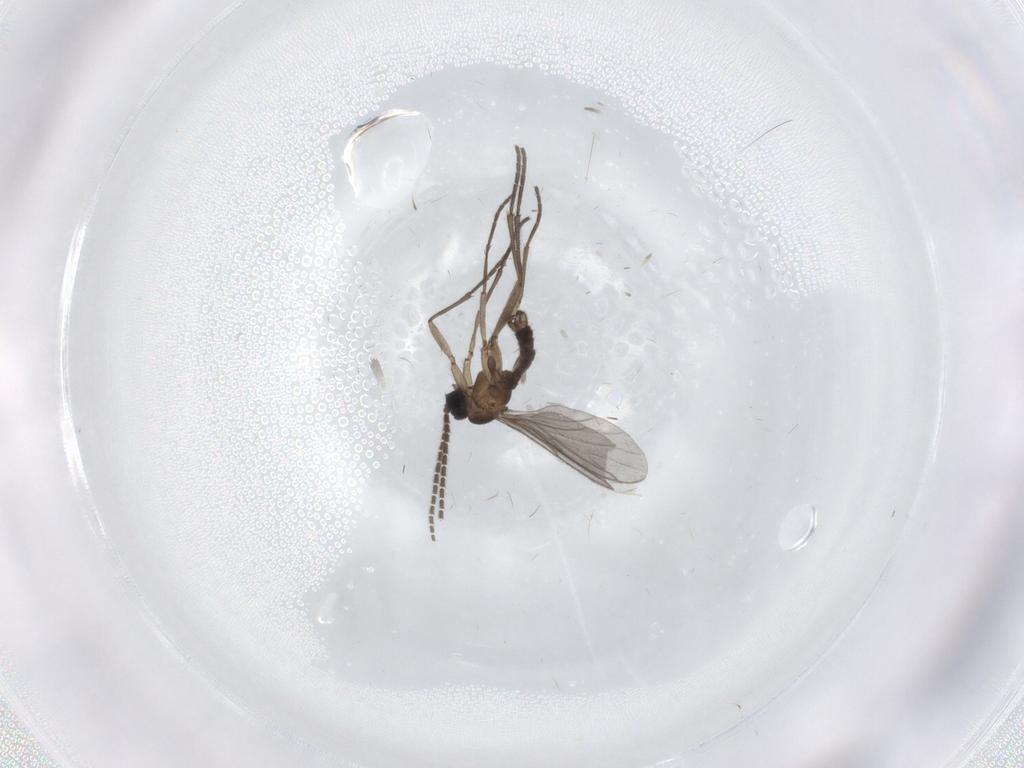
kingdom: Animalia
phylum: Arthropoda
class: Insecta
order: Diptera
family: Sciaridae
